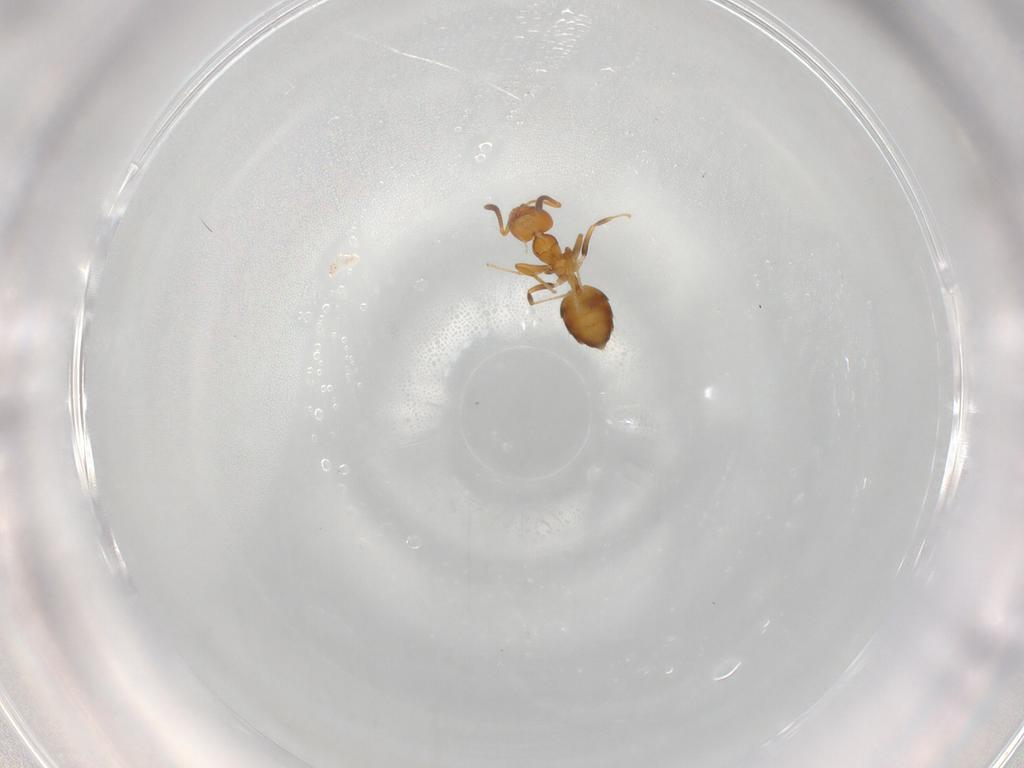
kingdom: Animalia
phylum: Arthropoda
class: Insecta
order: Hymenoptera
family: Formicidae
